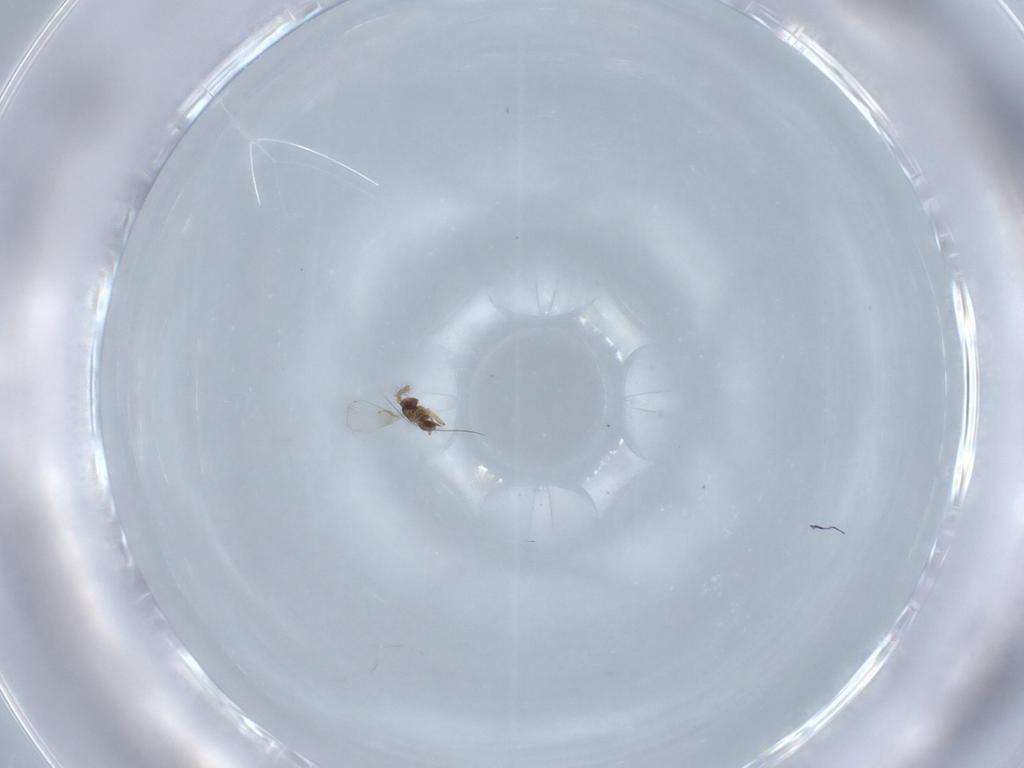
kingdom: Animalia
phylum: Arthropoda
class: Insecta
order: Hymenoptera
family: Trichogrammatidae
